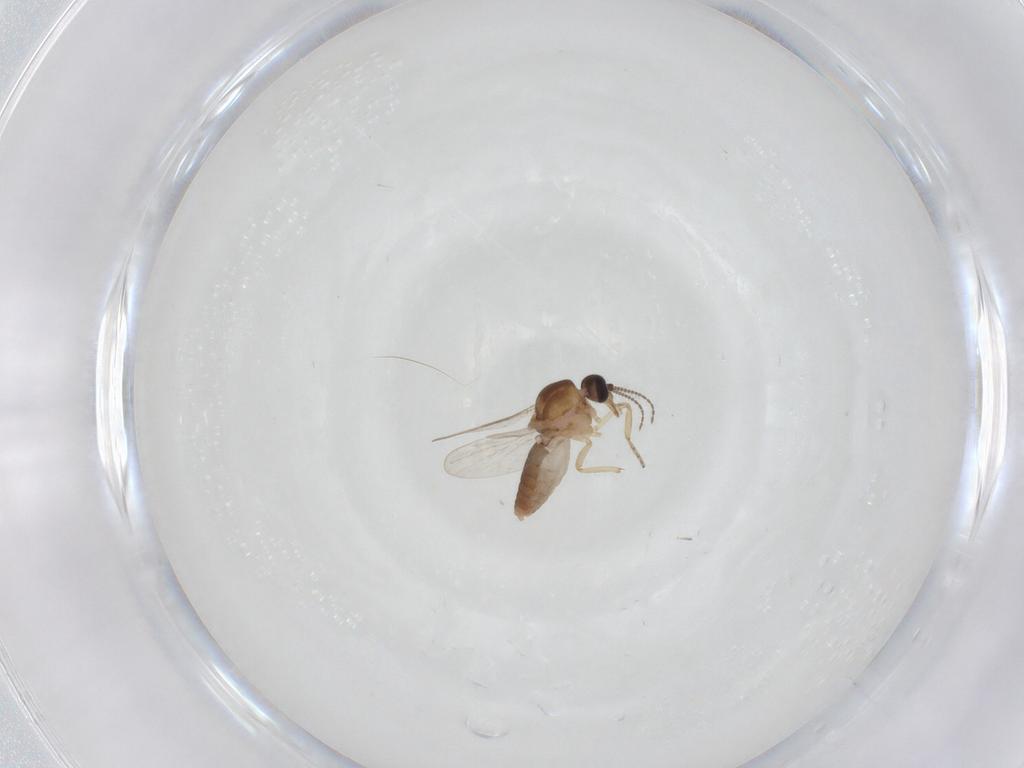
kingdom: Animalia
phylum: Arthropoda
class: Insecta
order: Diptera
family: Ceratopogonidae
